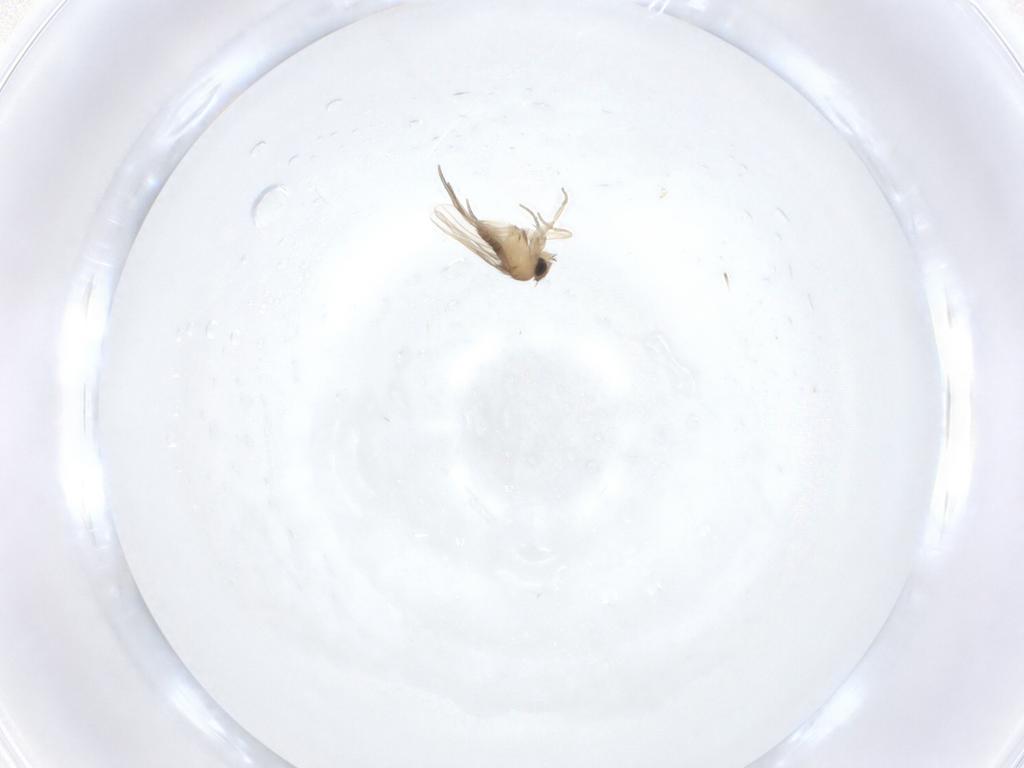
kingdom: Animalia
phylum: Arthropoda
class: Insecta
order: Diptera
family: Phoridae
